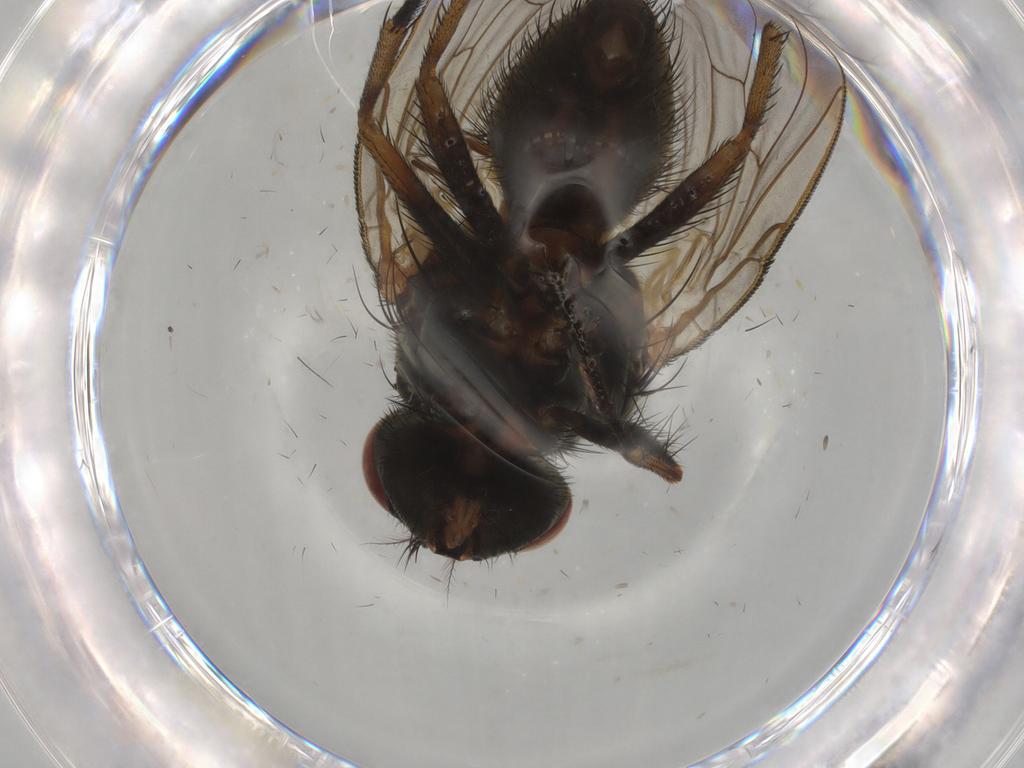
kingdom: Animalia
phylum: Arthropoda
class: Insecta
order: Diptera
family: Muscidae
